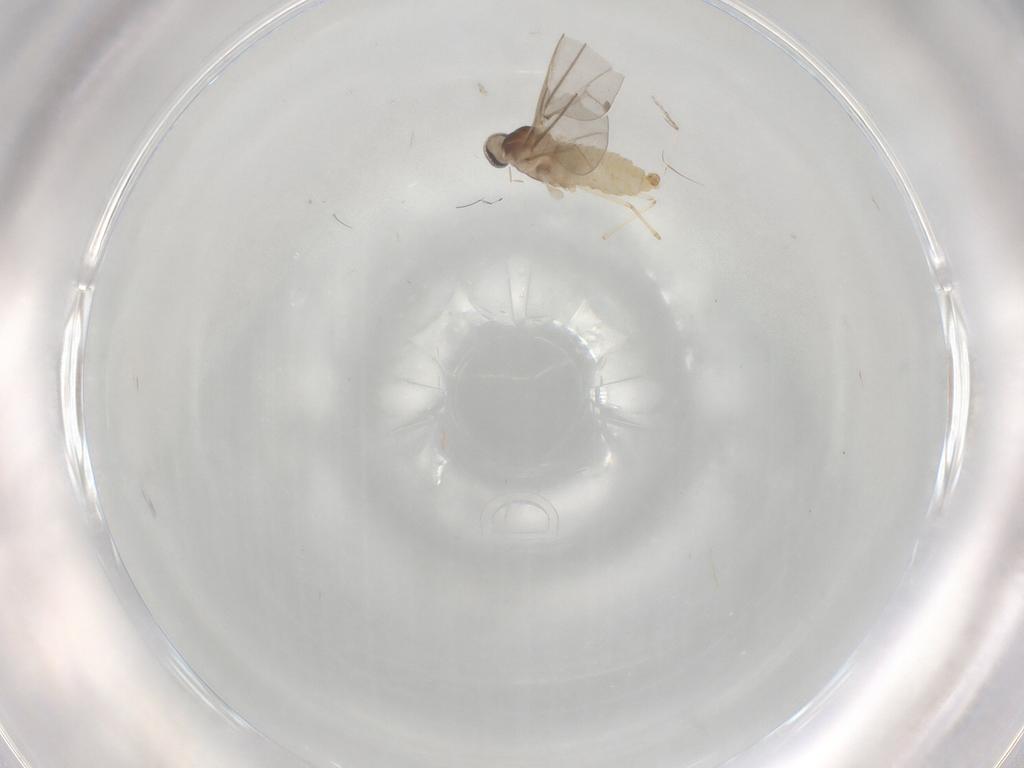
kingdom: Animalia
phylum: Arthropoda
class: Insecta
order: Diptera
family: Cecidomyiidae
